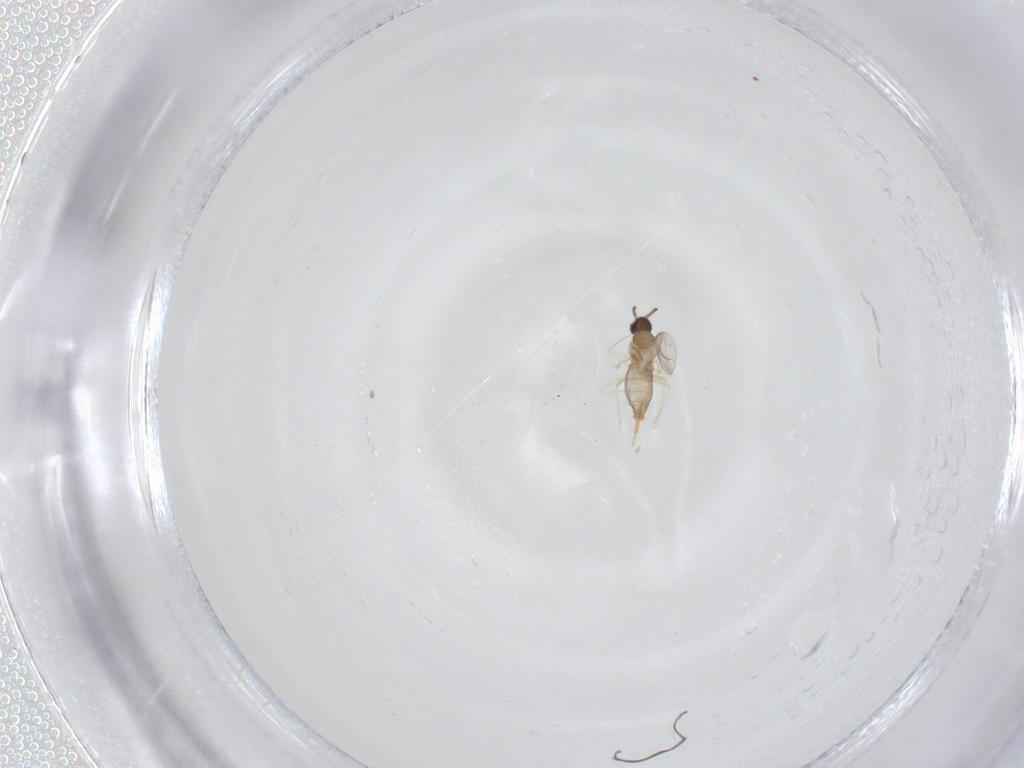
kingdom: Animalia
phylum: Arthropoda
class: Insecta
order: Diptera
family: Cecidomyiidae
